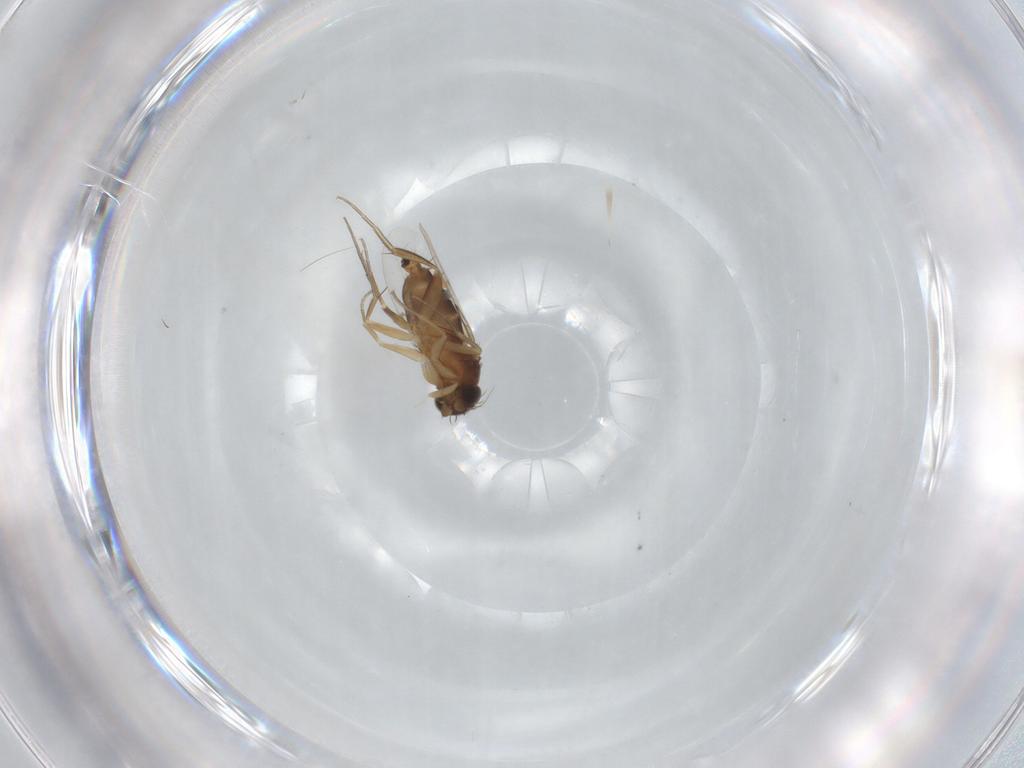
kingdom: Animalia
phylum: Arthropoda
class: Insecta
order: Diptera
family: Phoridae
